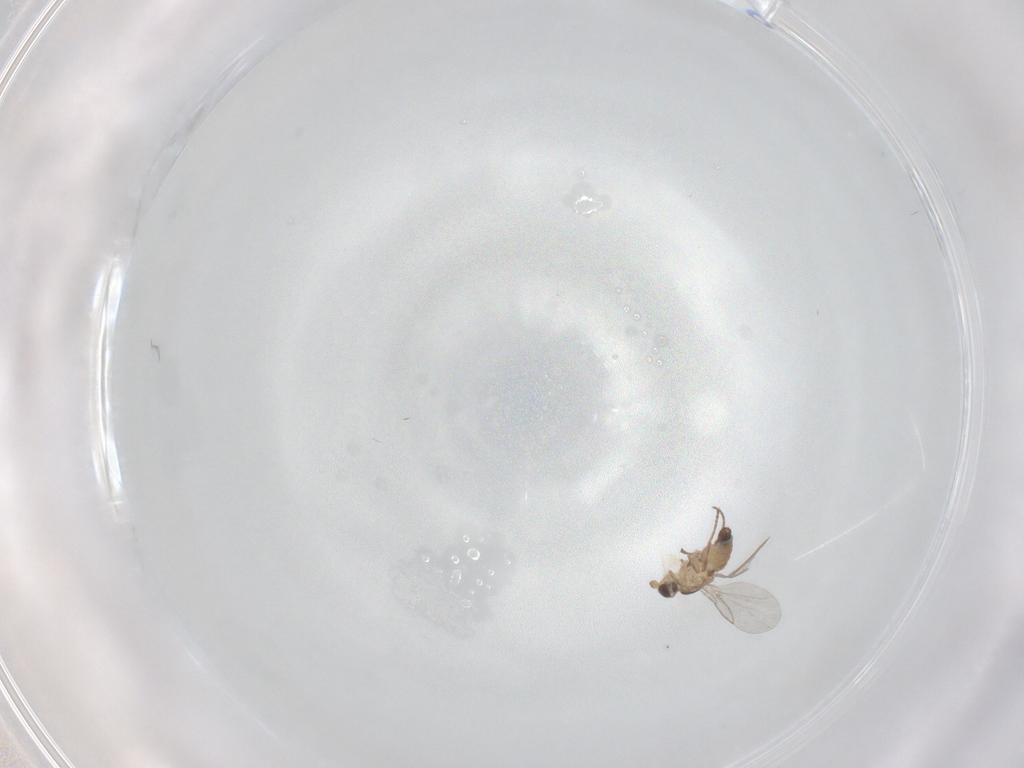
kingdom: Animalia
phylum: Arthropoda
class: Insecta
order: Diptera
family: Agromyzidae
